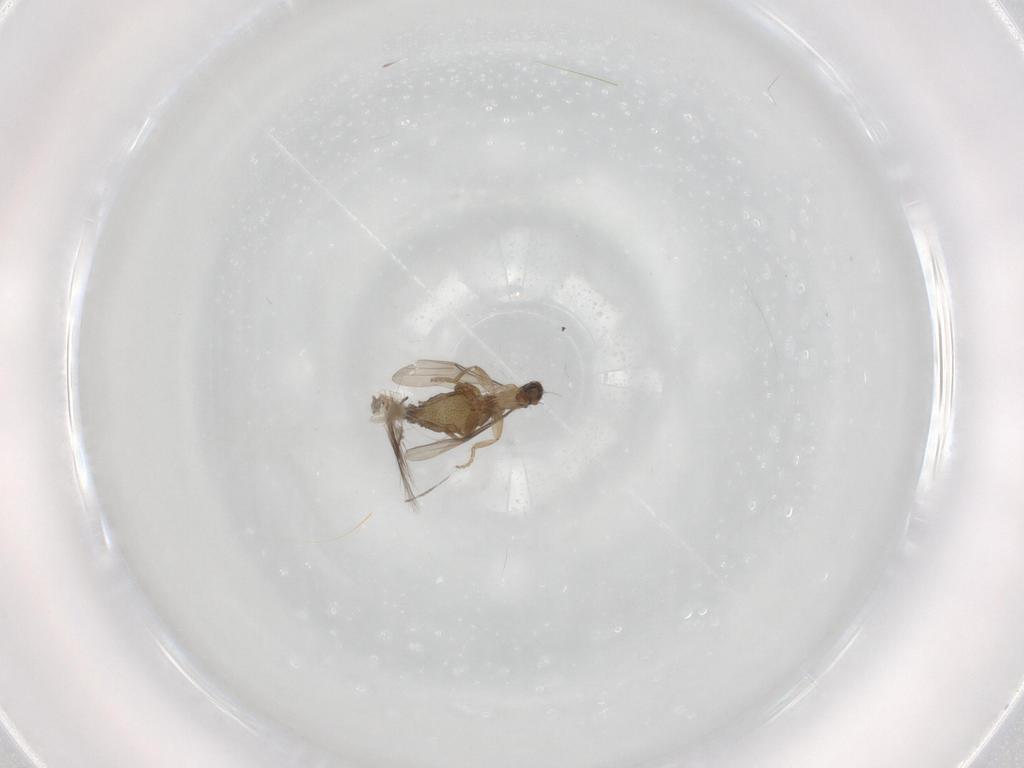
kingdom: Animalia
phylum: Arthropoda
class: Insecta
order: Diptera
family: Phoridae
